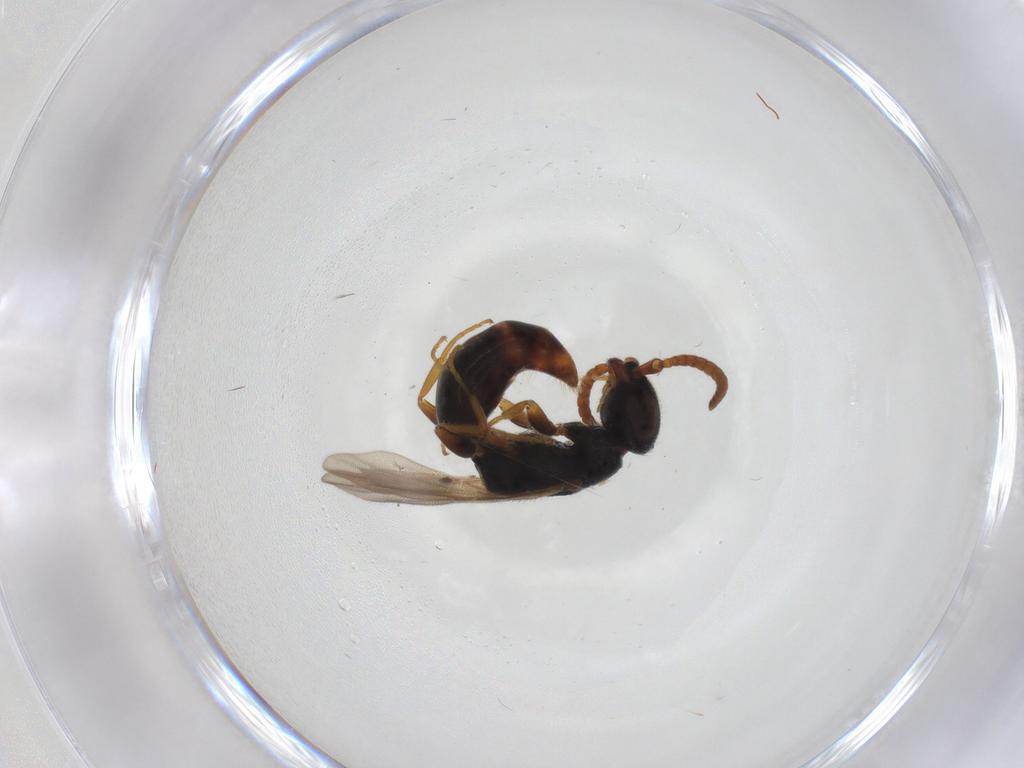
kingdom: Animalia
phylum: Arthropoda
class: Insecta
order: Hymenoptera
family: Bethylidae
